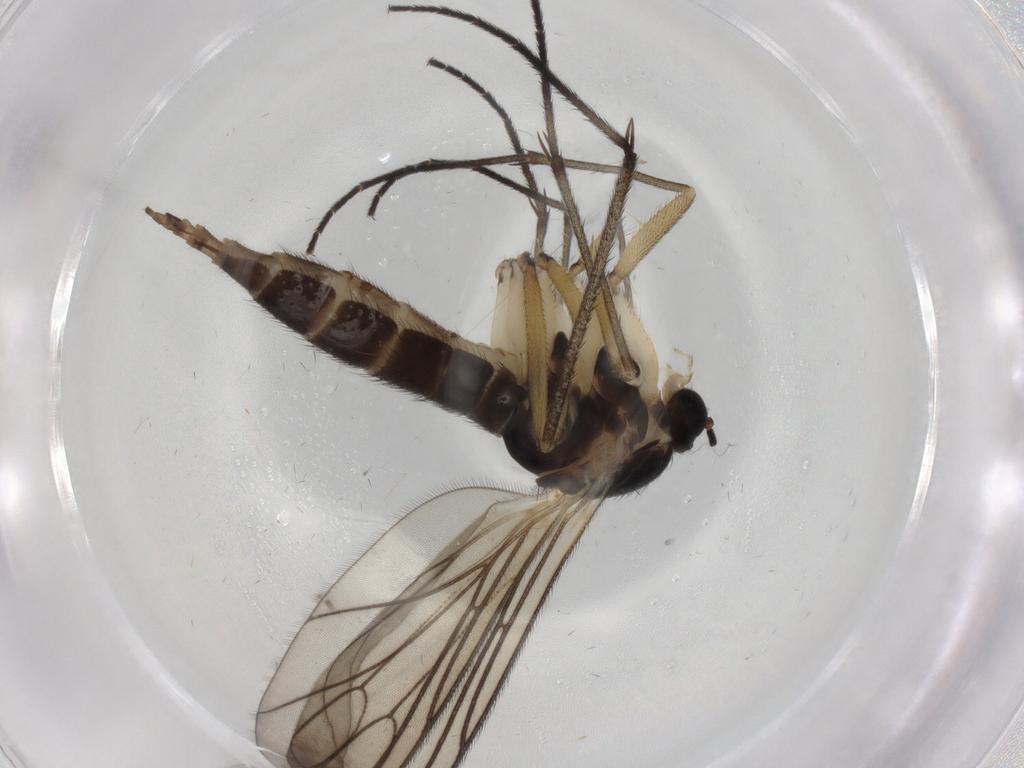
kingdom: Animalia
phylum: Arthropoda
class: Insecta
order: Diptera
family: Sciaridae
